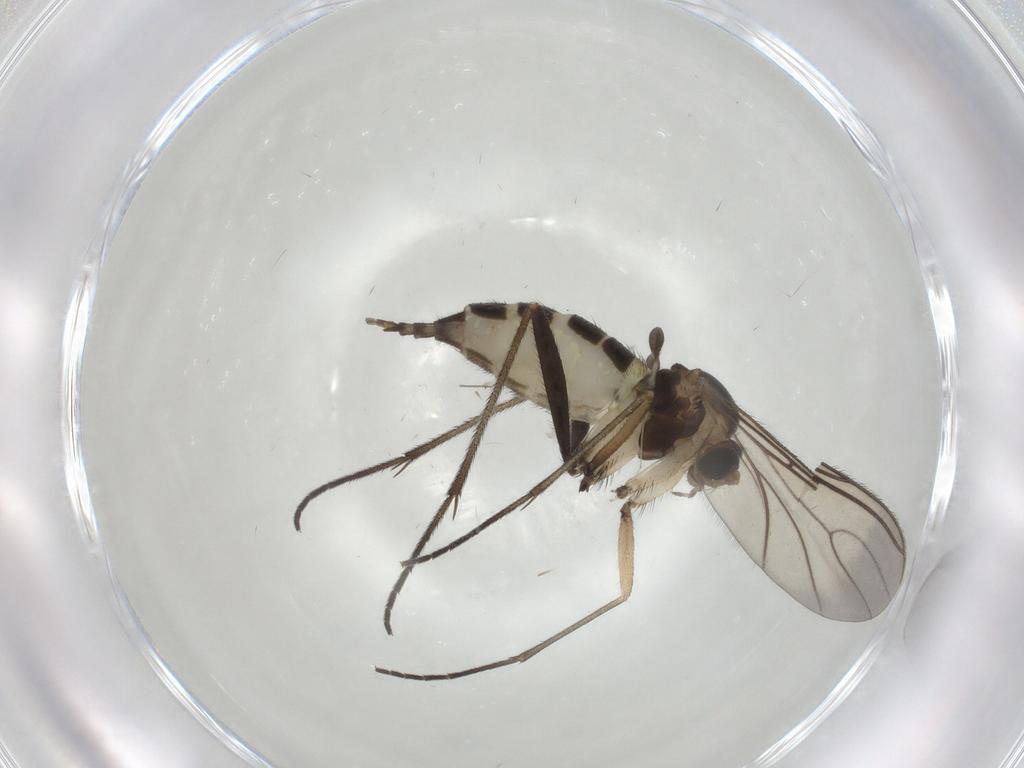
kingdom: Animalia
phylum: Arthropoda
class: Insecta
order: Diptera
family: Sciaridae
